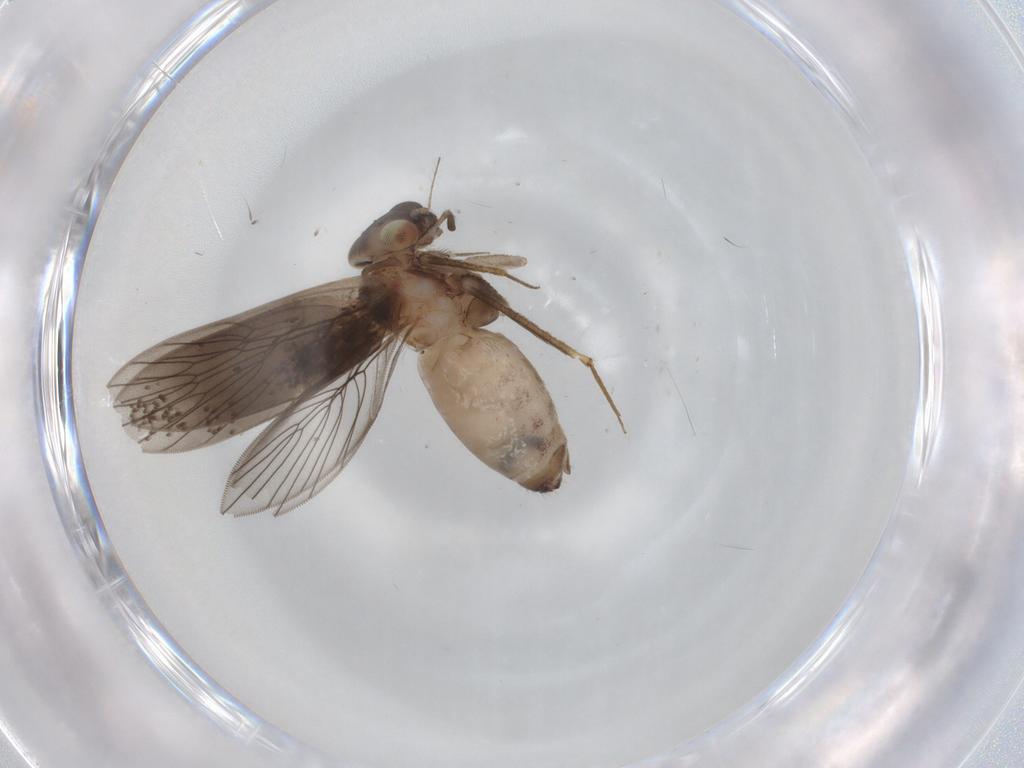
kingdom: Animalia
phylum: Arthropoda
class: Insecta
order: Psocodea
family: Lepidopsocidae
